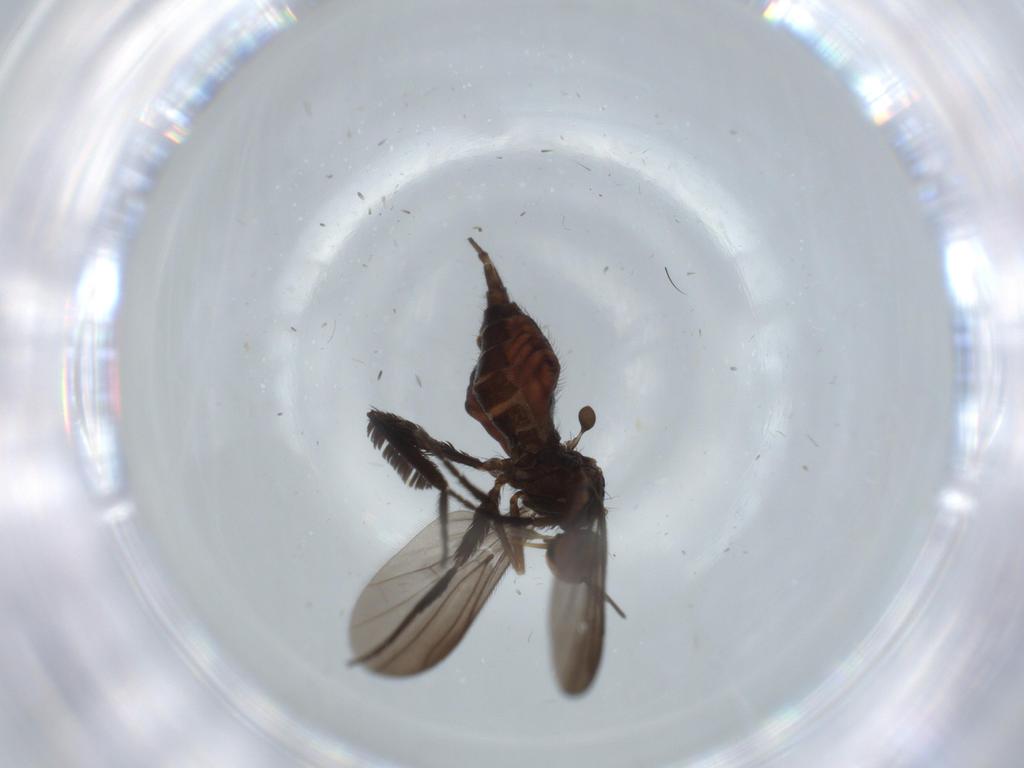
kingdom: Animalia
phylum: Arthropoda
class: Insecta
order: Diptera
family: Empididae
